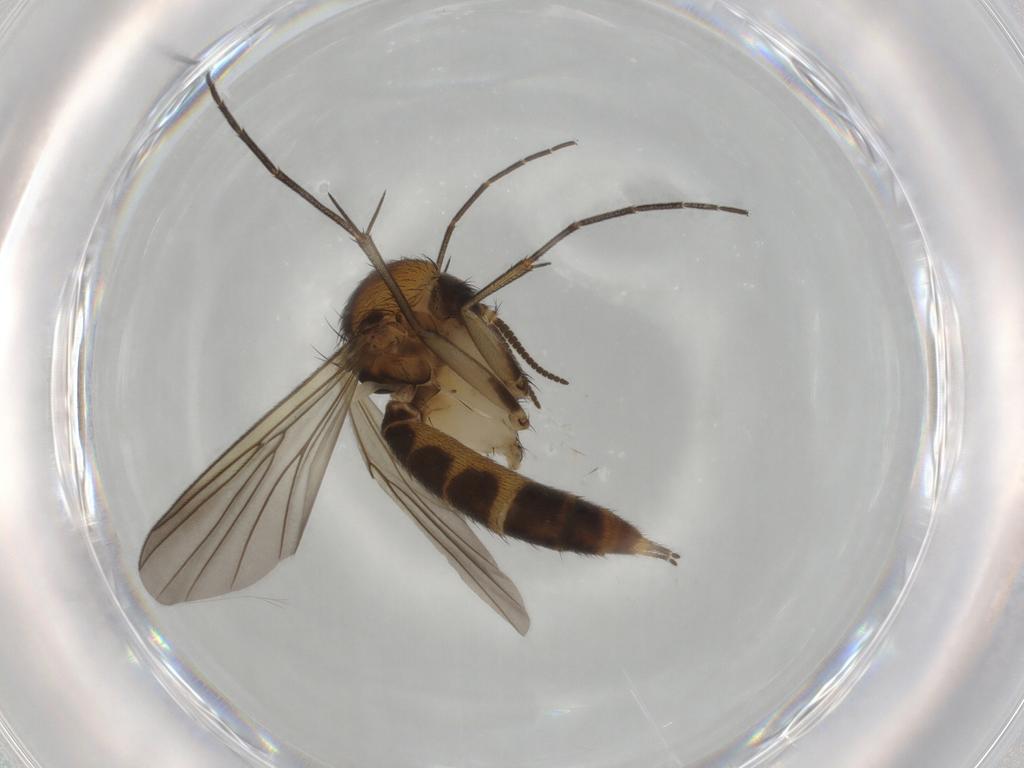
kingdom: Animalia
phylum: Arthropoda
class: Insecta
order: Diptera
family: Mycetophilidae
